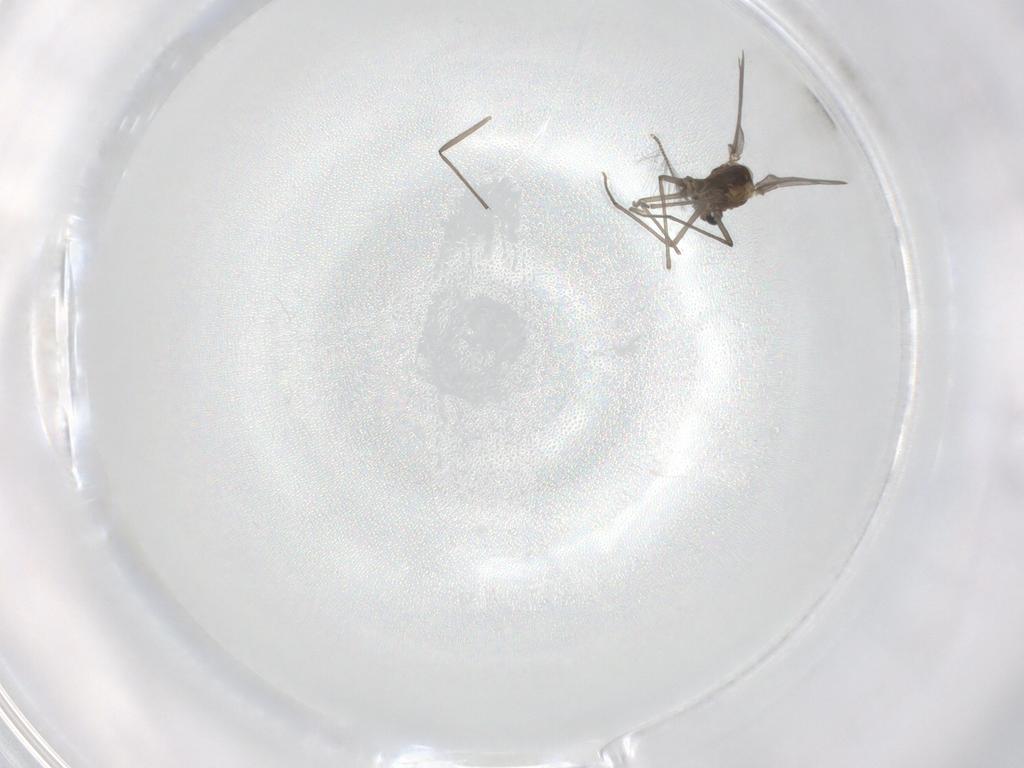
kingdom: Animalia
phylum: Arthropoda
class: Insecta
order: Diptera
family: Chironomidae
